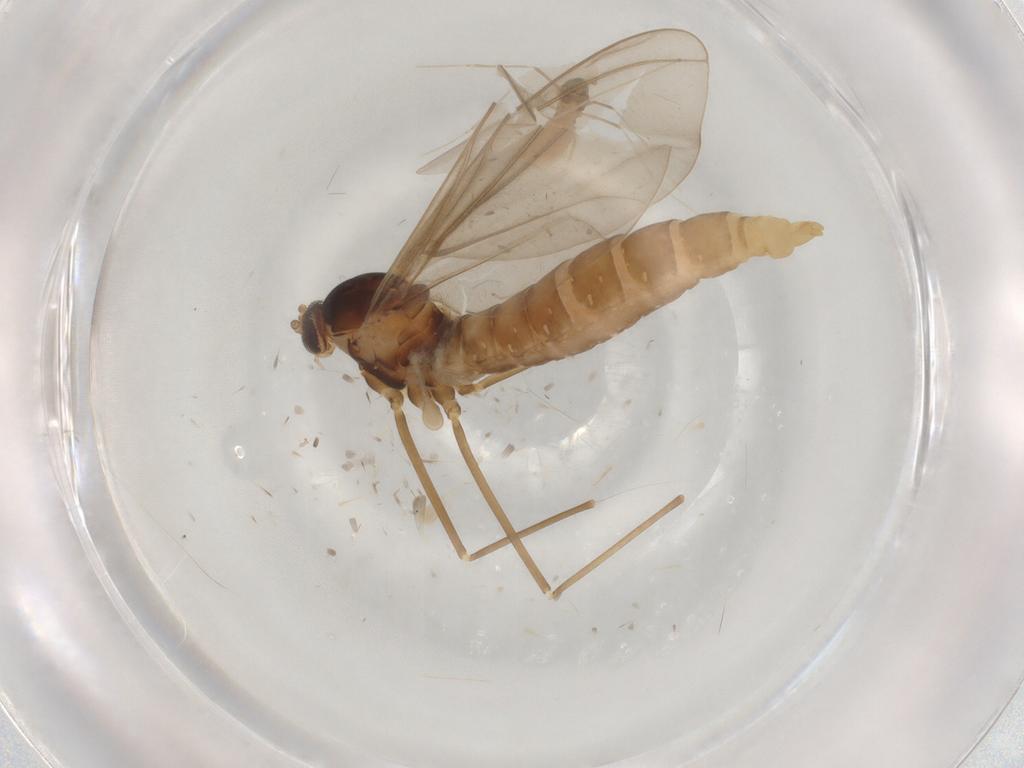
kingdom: Animalia
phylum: Arthropoda
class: Insecta
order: Diptera
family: Cecidomyiidae
